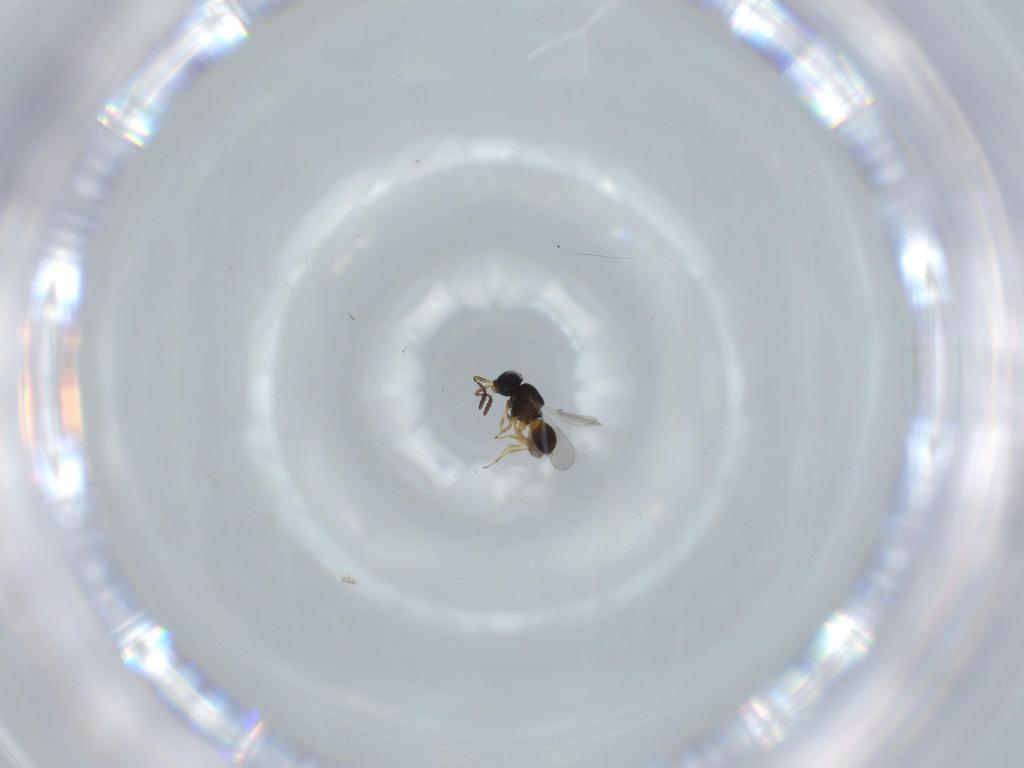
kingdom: Animalia
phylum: Arthropoda
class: Insecta
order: Hymenoptera
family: Scelionidae
